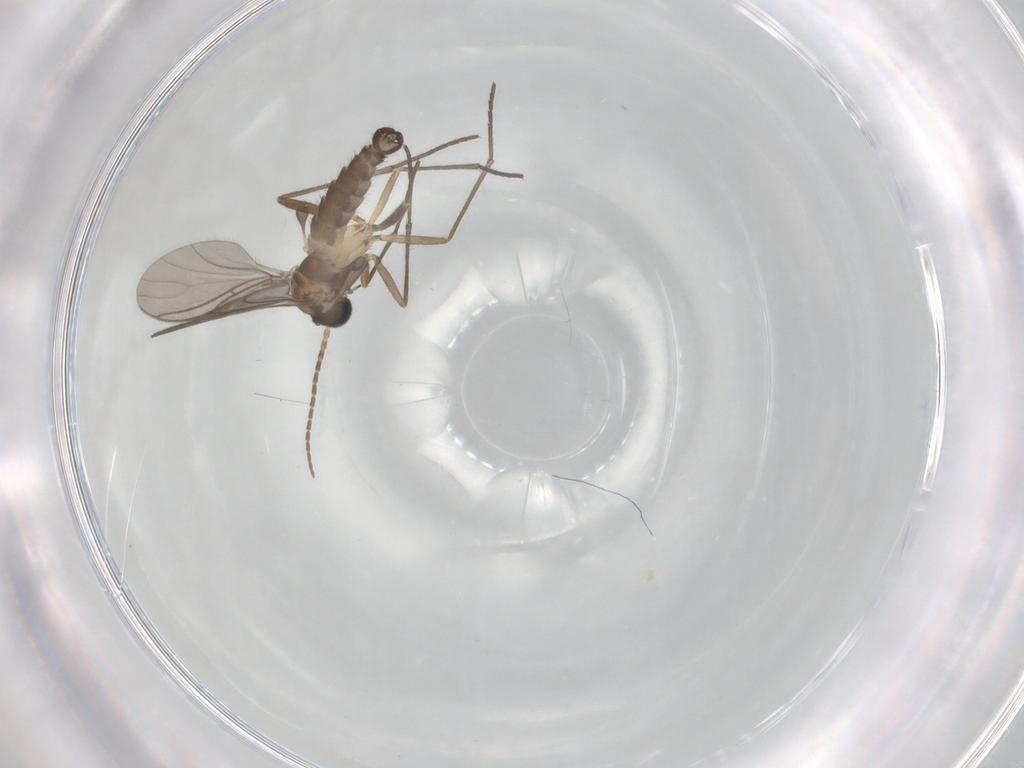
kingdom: Animalia
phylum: Arthropoda
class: Insecta
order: Diptera
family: Sciaridae
